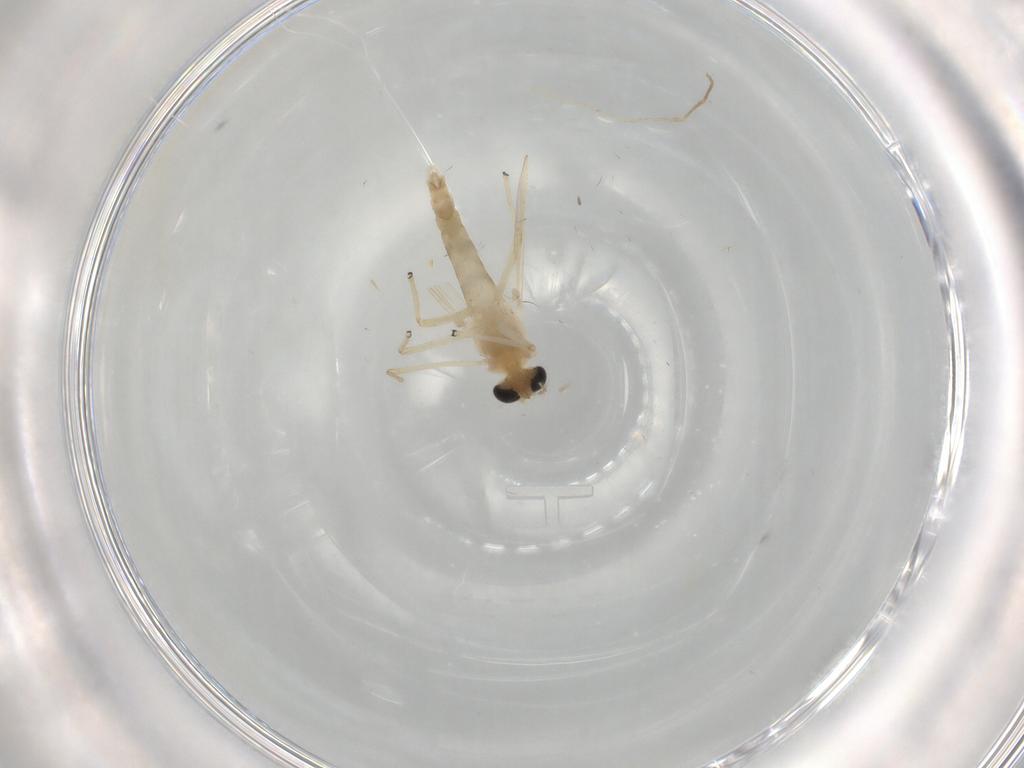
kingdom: Animalia
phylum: Arthropoda
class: Insecta
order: Diptera
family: Chironomidae
